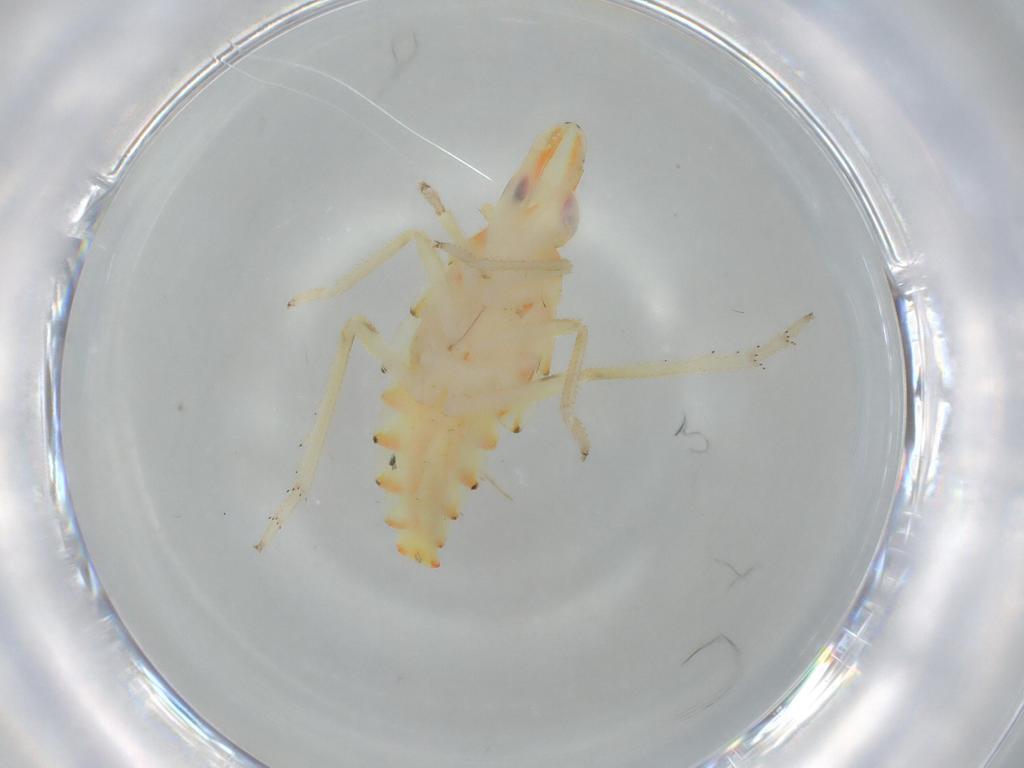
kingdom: Animalia
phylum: Arthropoda
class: Insecta
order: Hemiptera
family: Tropiduchidae
